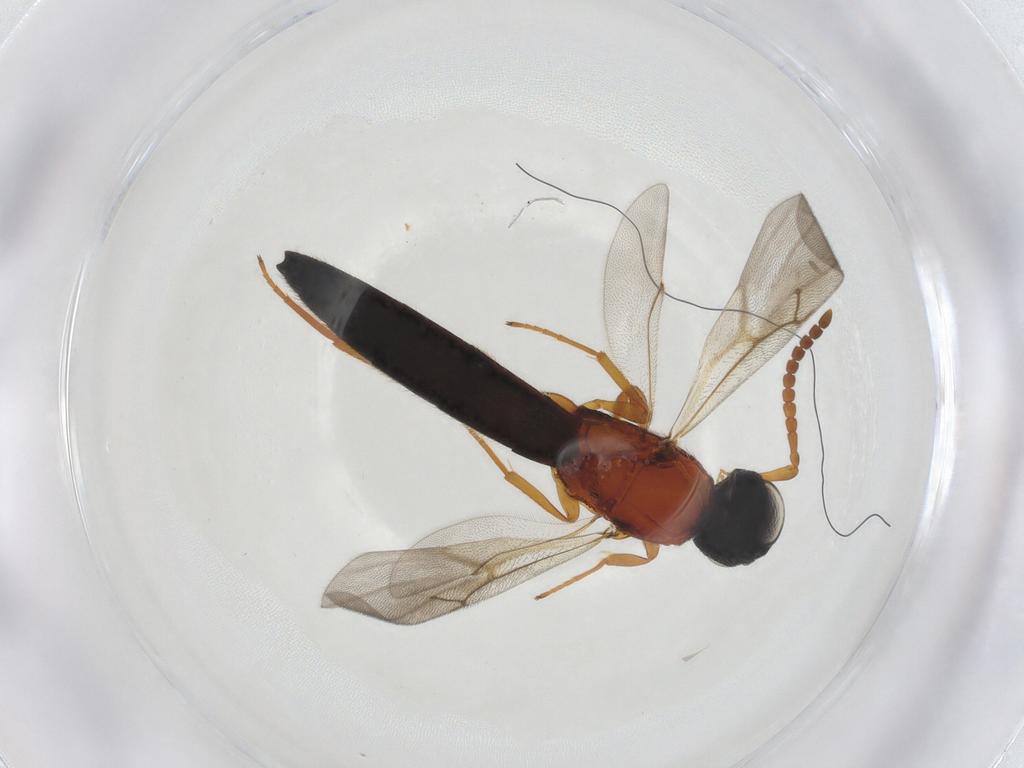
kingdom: Animalia
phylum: Arthropoda
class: Insecta
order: Hymenoptera
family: Scelionidae
